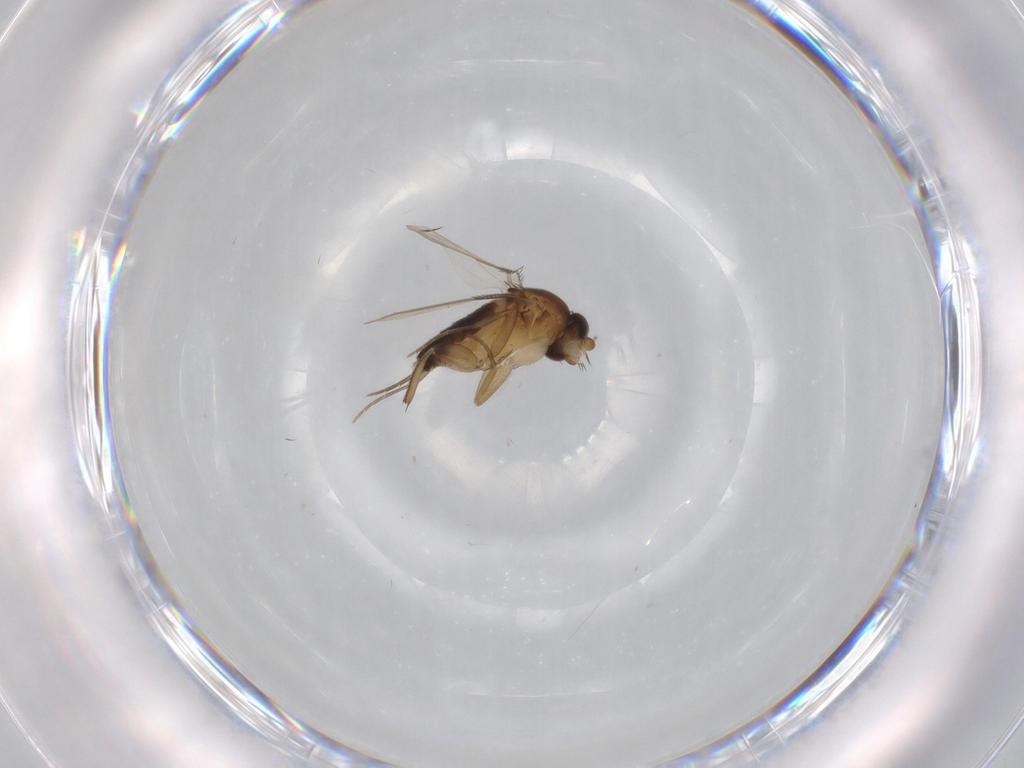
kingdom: Animalia
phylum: Arthropoda
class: Insecta
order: Diptera
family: Phoridae
